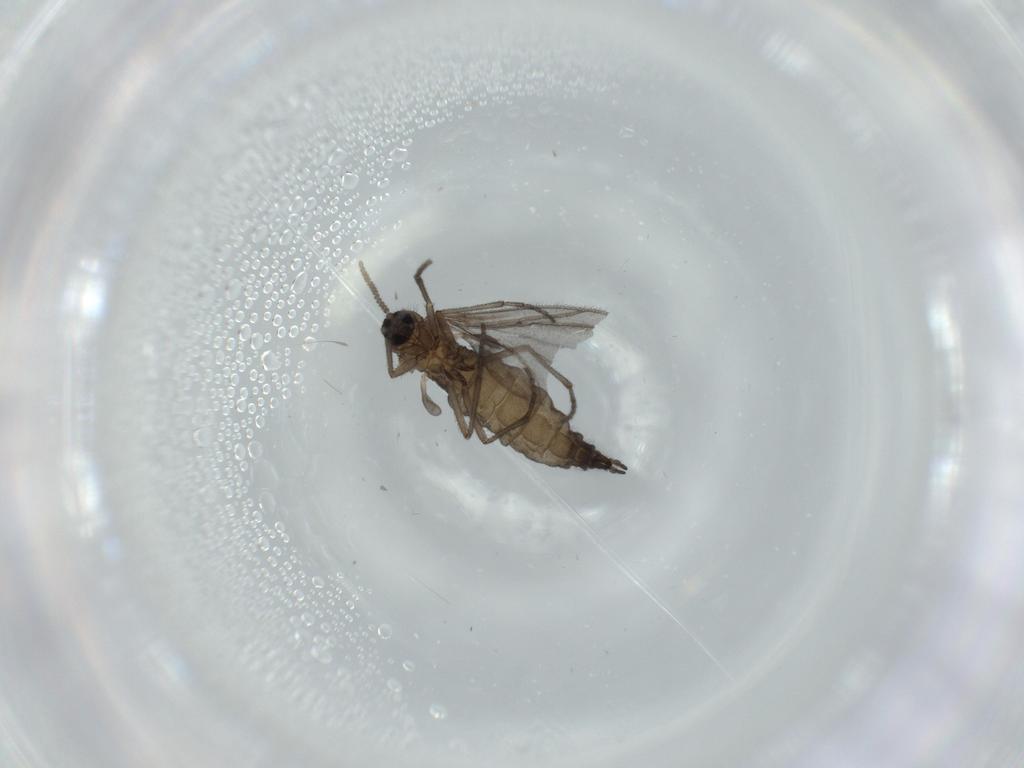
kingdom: Animalia
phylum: Arthropoda
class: Insecta
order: Diptera
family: Sciaridae
